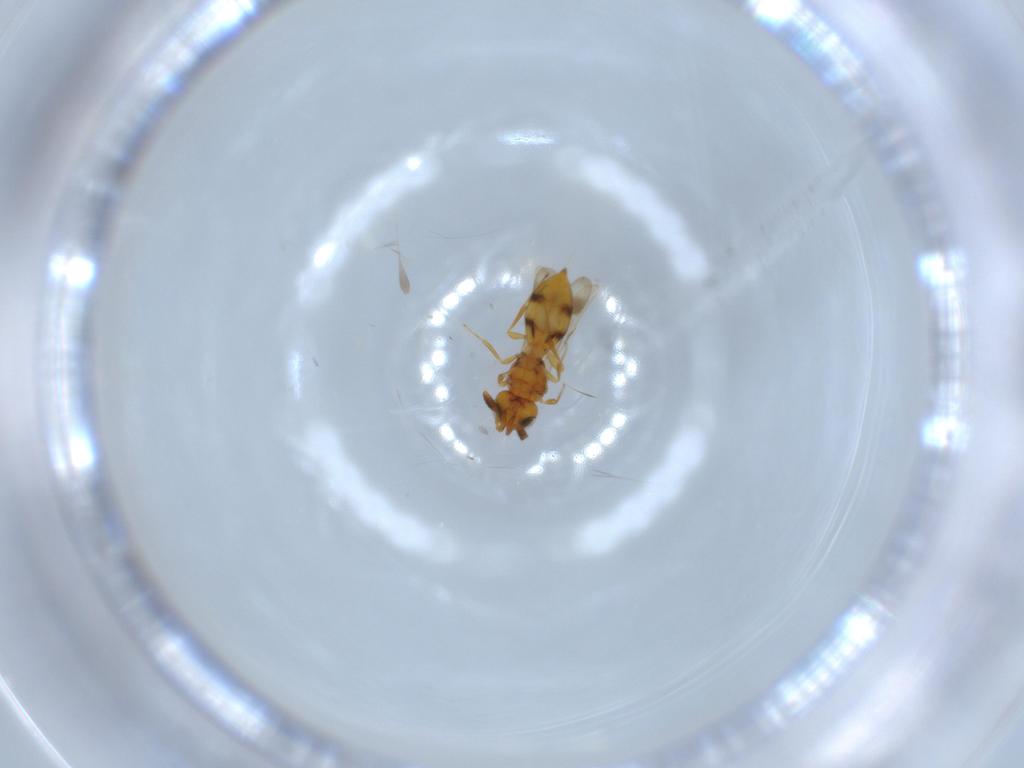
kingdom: Animalia
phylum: Arthropoda
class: Insecta
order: Hymenoptera
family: Scelionidae
